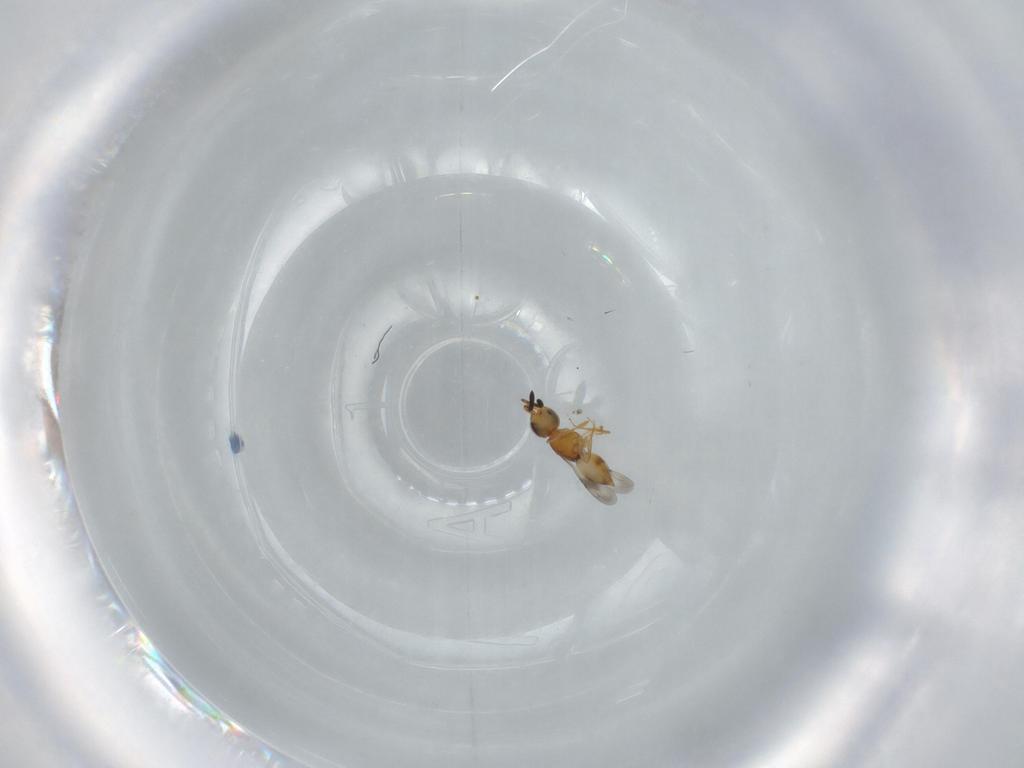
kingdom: Animalia
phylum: Arthropoda
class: Insecta
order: Hymenoptera
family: Ceraphronidae
